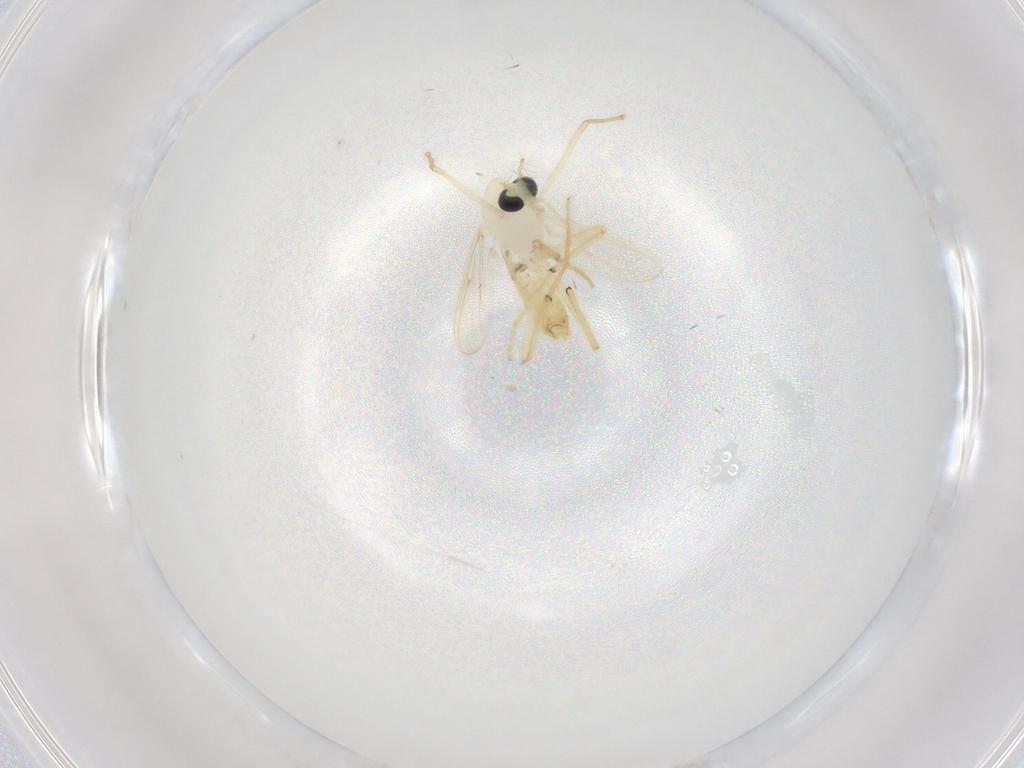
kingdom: Animalia
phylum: Arthropoda
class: Insecta
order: Diptera
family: Chironomidae
